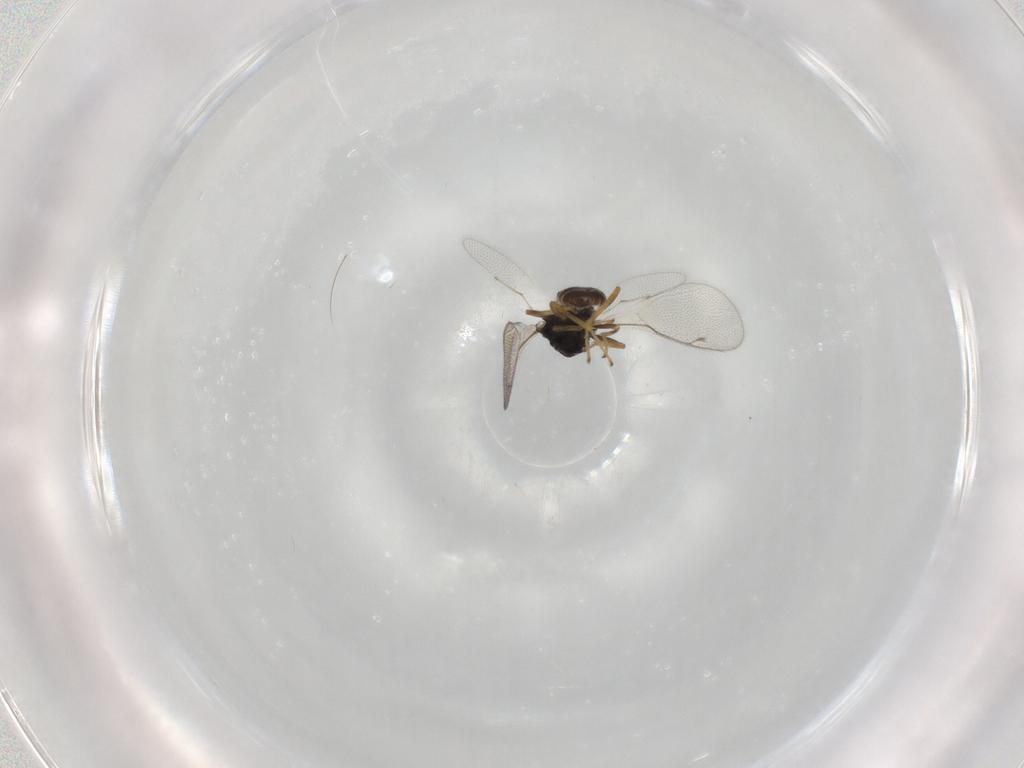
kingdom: Animalia
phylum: Arthropoda
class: Insecta
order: Hymenoptera
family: Pteromalidae
